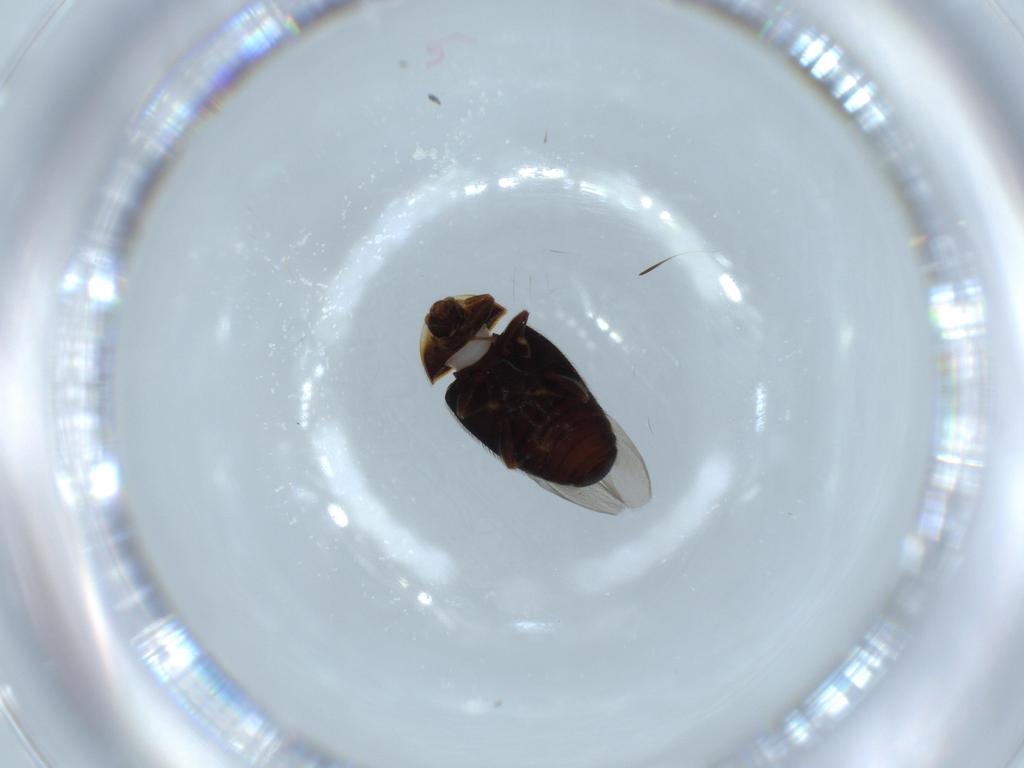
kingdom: Animalia
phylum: Arthropoda
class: Insecta
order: Coleoptera
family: Corylophidae
